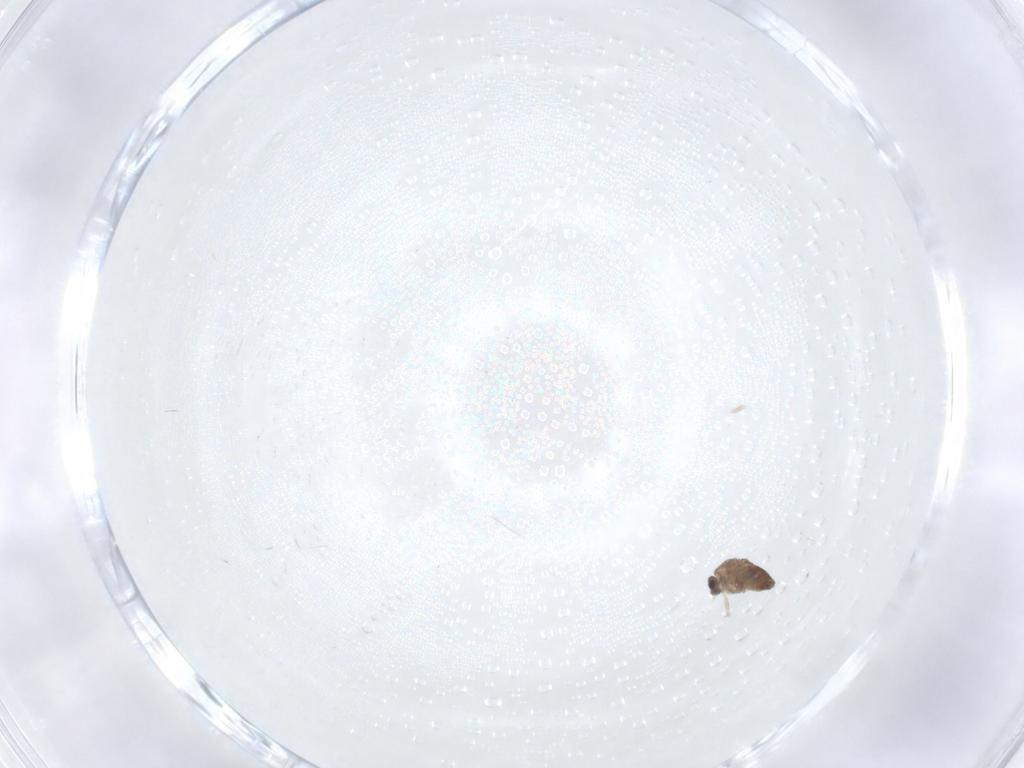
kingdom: Animalia
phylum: Arthropoda
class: Insecta
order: Diptera
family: Chironomidae
